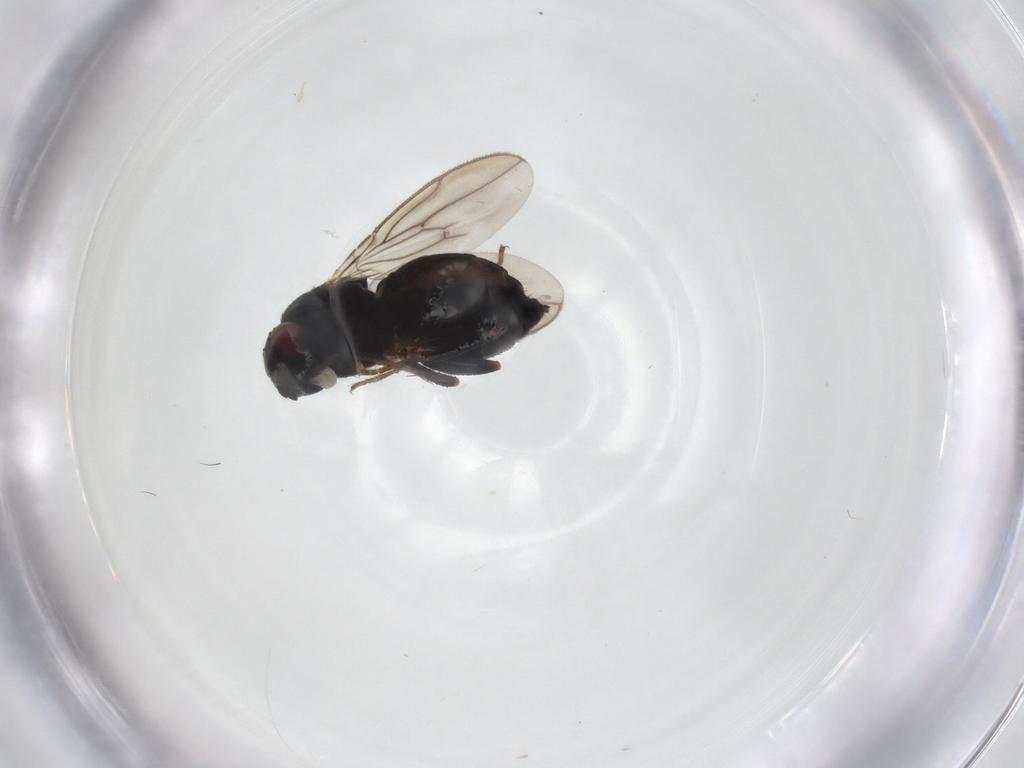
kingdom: Animalia
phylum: Arthropoda
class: Insecta
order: Diptera
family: Sphaeroceridae
